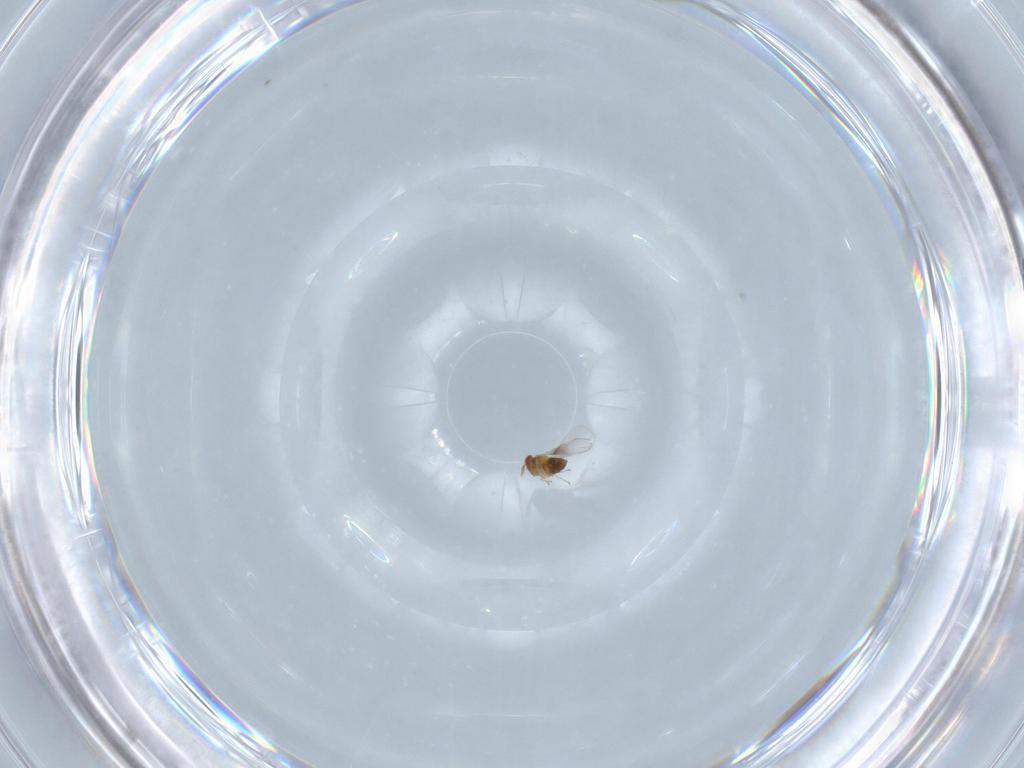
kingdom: Animalia
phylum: Arthropoda
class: Insecta
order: Hymenoptera
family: Trichogrammatidae
